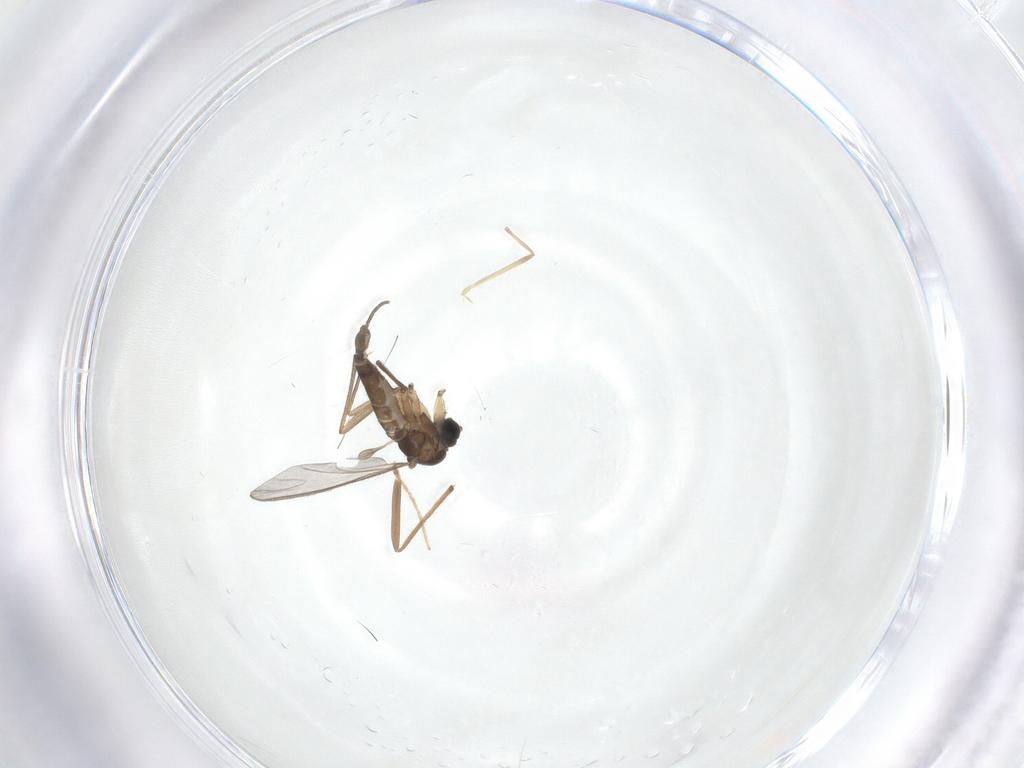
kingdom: Animalia
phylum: Arthropoda
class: Insecta
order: Diptera
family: Sciaridae
